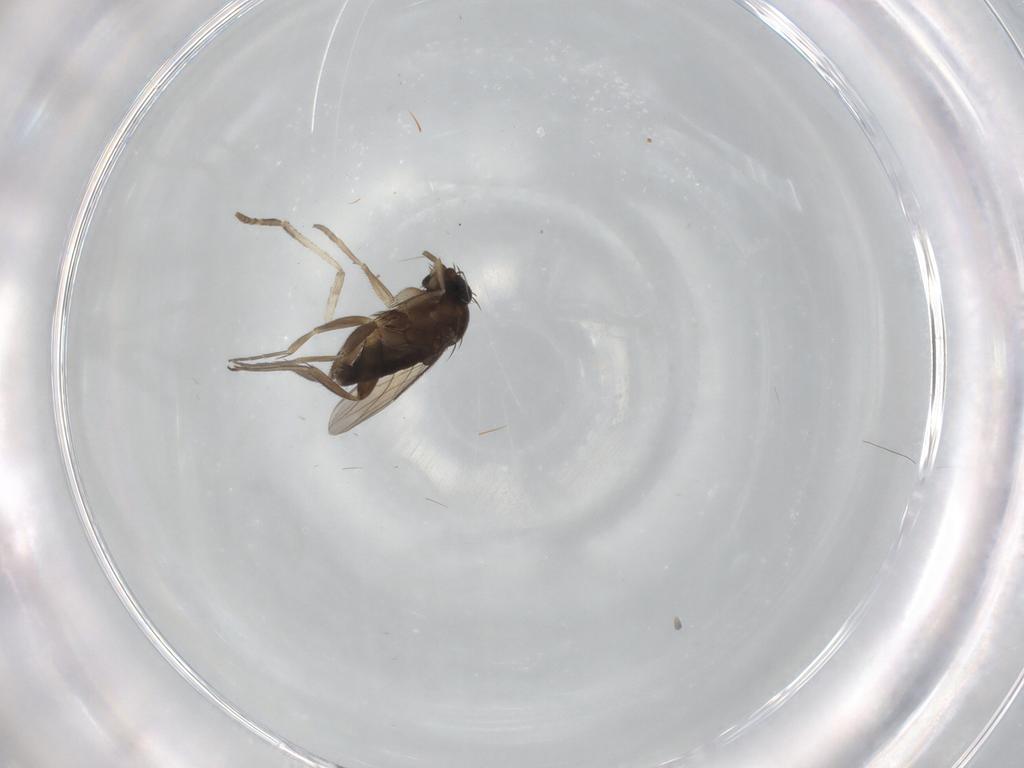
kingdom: Animalia
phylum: Arthropoda
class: Insecta
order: Diptera
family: Phoridae
